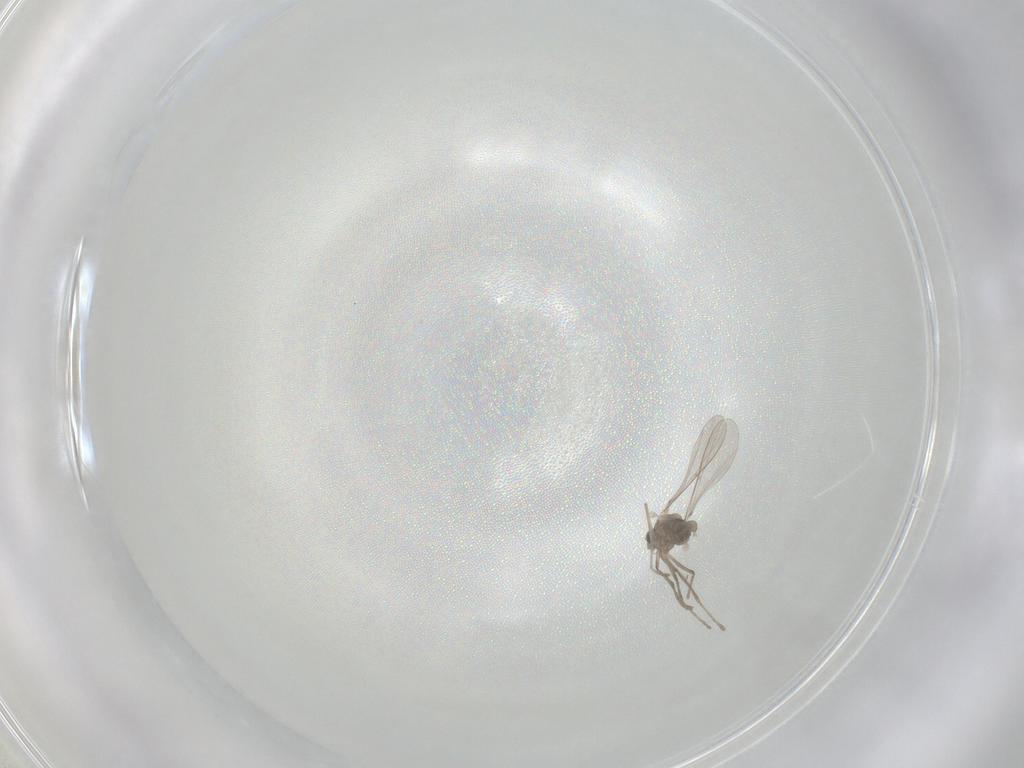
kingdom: Animalia
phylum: Arthropoda
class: Insecta
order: Diptera
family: Cecidomyiidae
